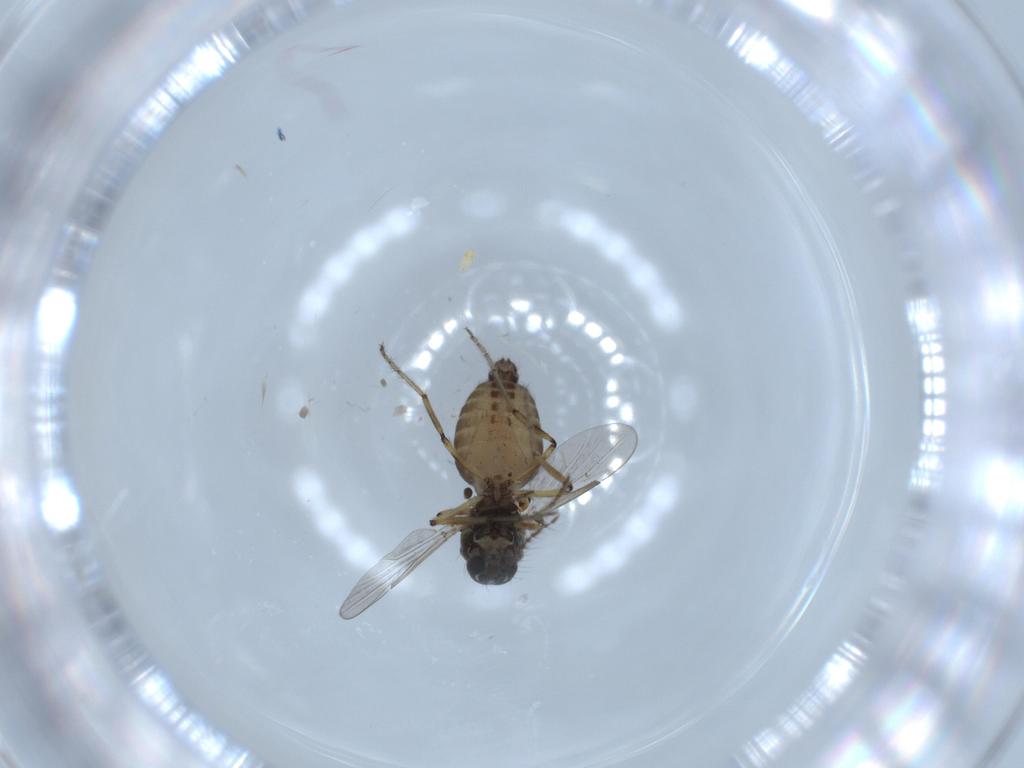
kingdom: Animalia
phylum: Arthropoda
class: Insecta
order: Diptera
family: Ceratopogonidae
